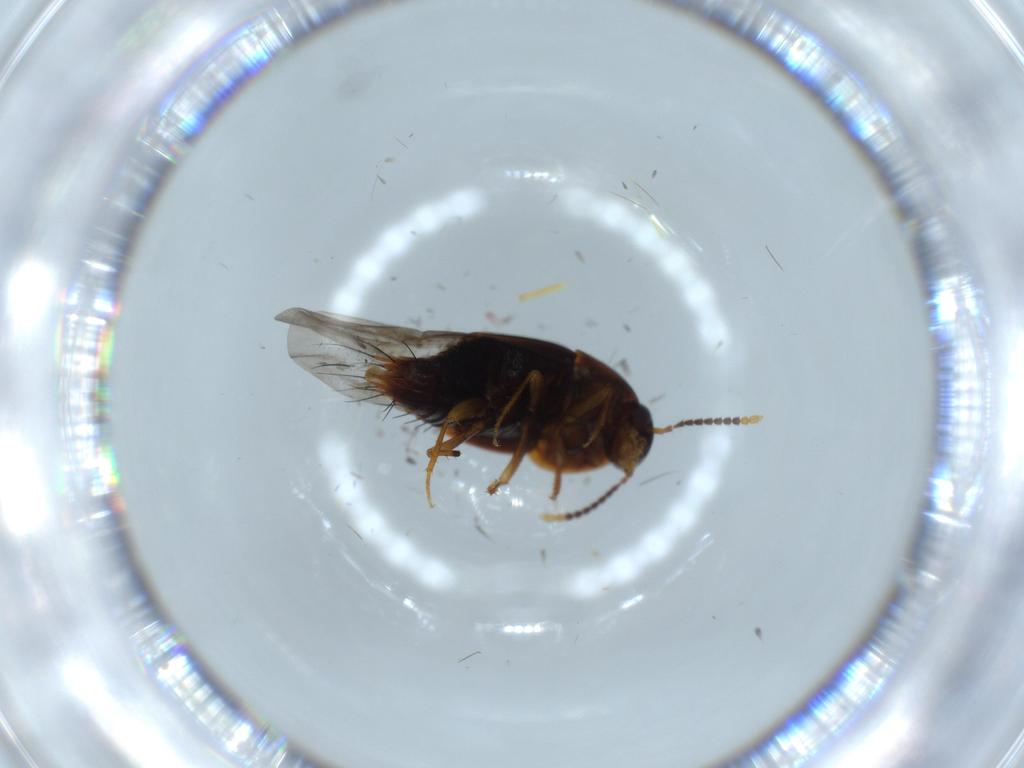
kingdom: Animalia
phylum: Arthropoda
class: Insecta
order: Coleoptera
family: Staphylinidae
